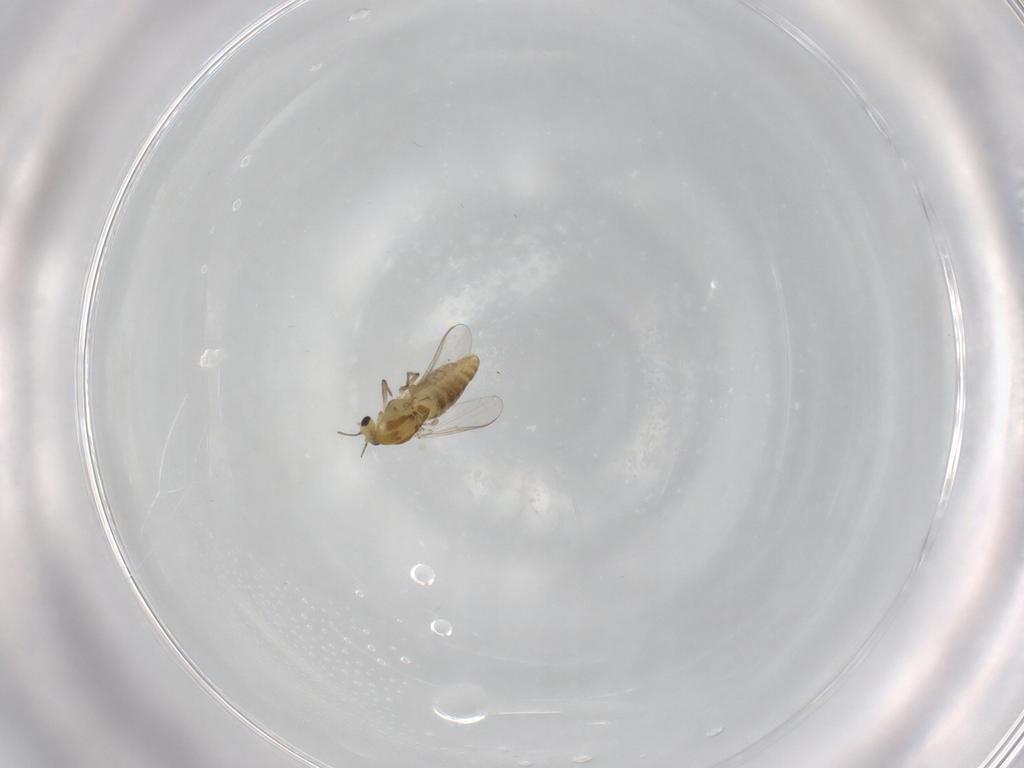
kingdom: Animalia
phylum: Arthropoda
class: Insecta
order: Diptera
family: Chironomidae
